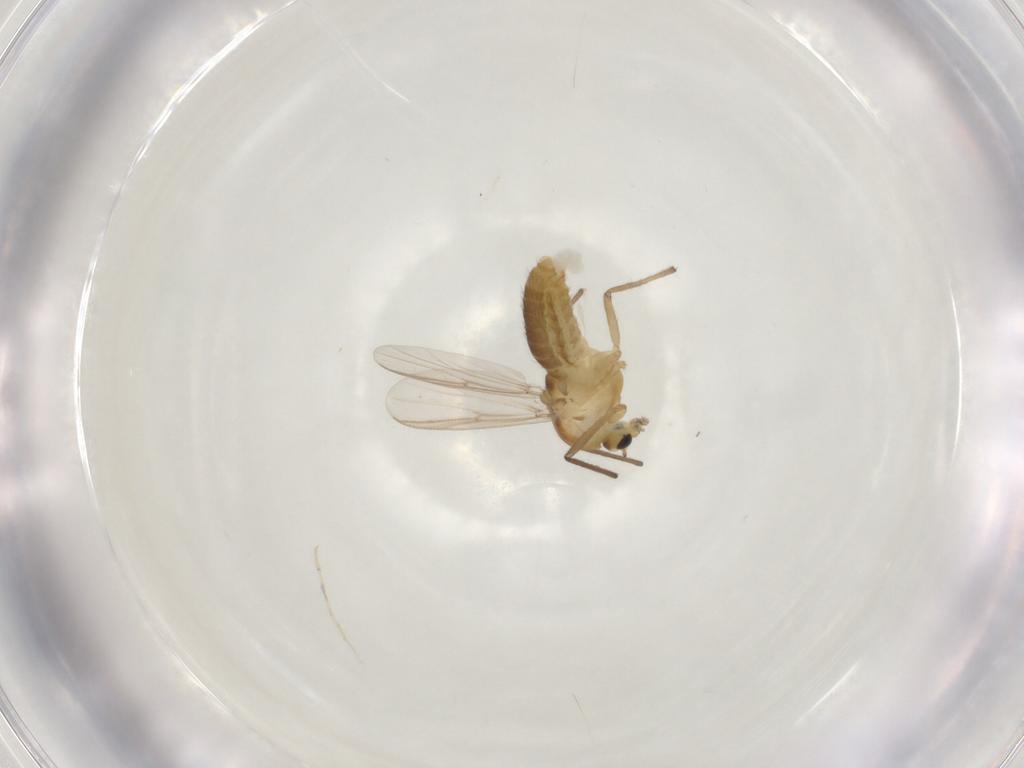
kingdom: Animalia
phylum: Arthropoda
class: Insecta
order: Diptera
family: Chironomidae
